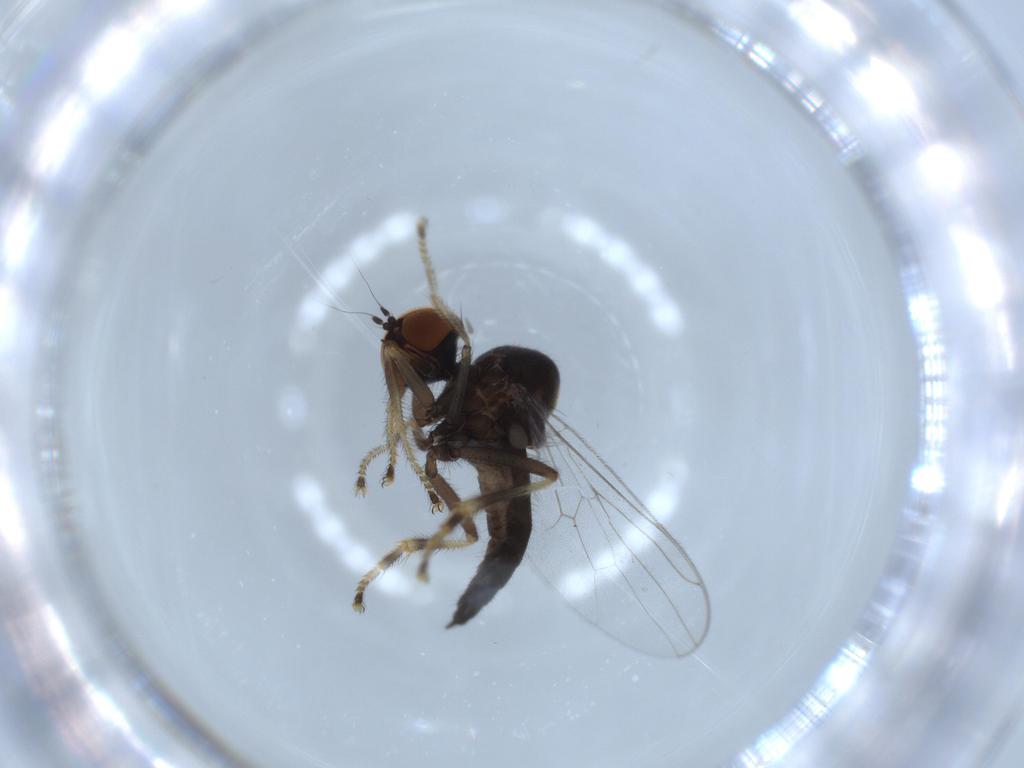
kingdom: Animalia
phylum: Arthropoda
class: Insecta
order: Diptera
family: Hybotidae
